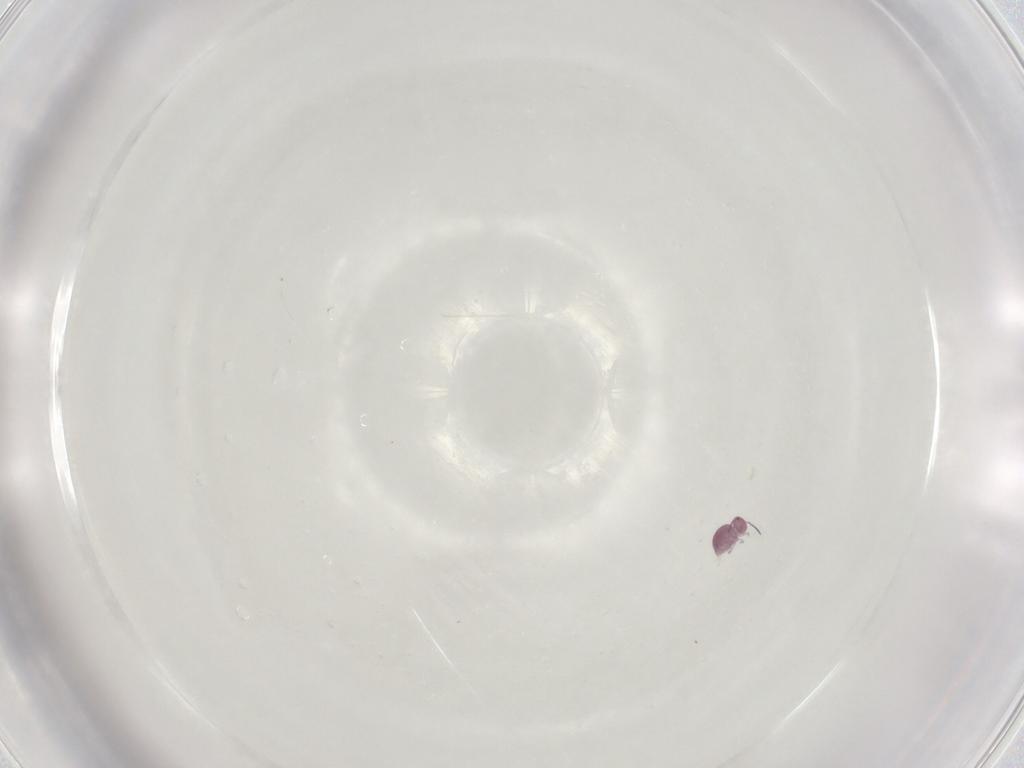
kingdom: Animalia
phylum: Arthropoda
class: Collembola
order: Symphypleona
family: Sminthurididae
